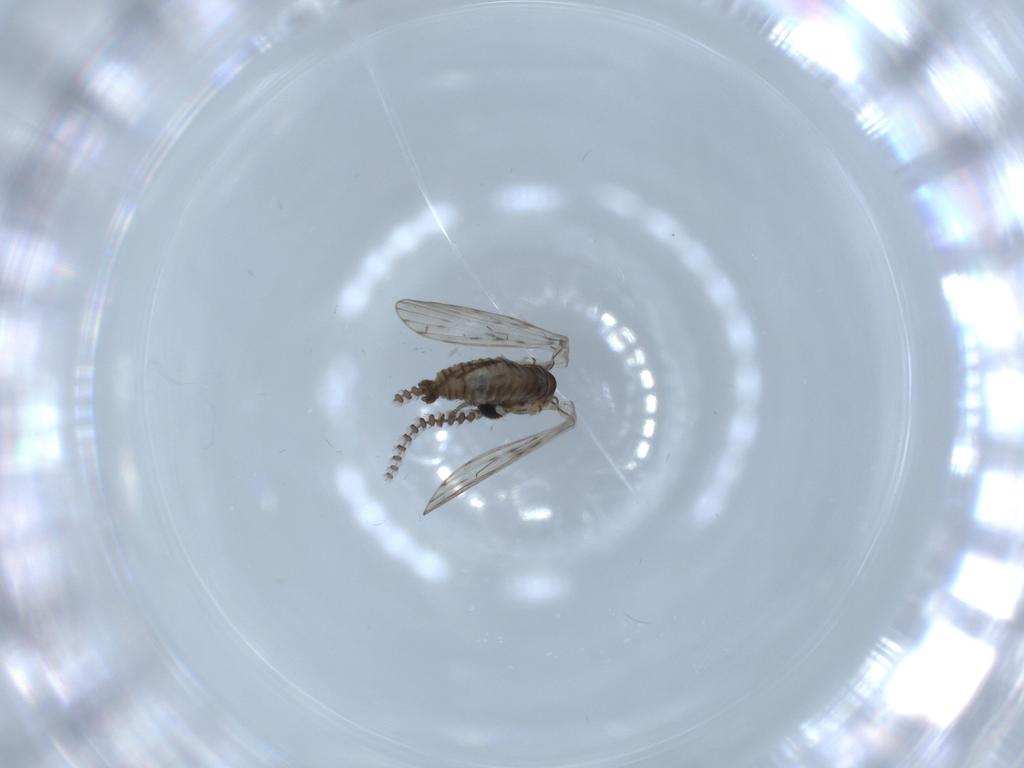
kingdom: Animalia
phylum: Arthropoda
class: Insecta
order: Diptera
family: Psychodidae
